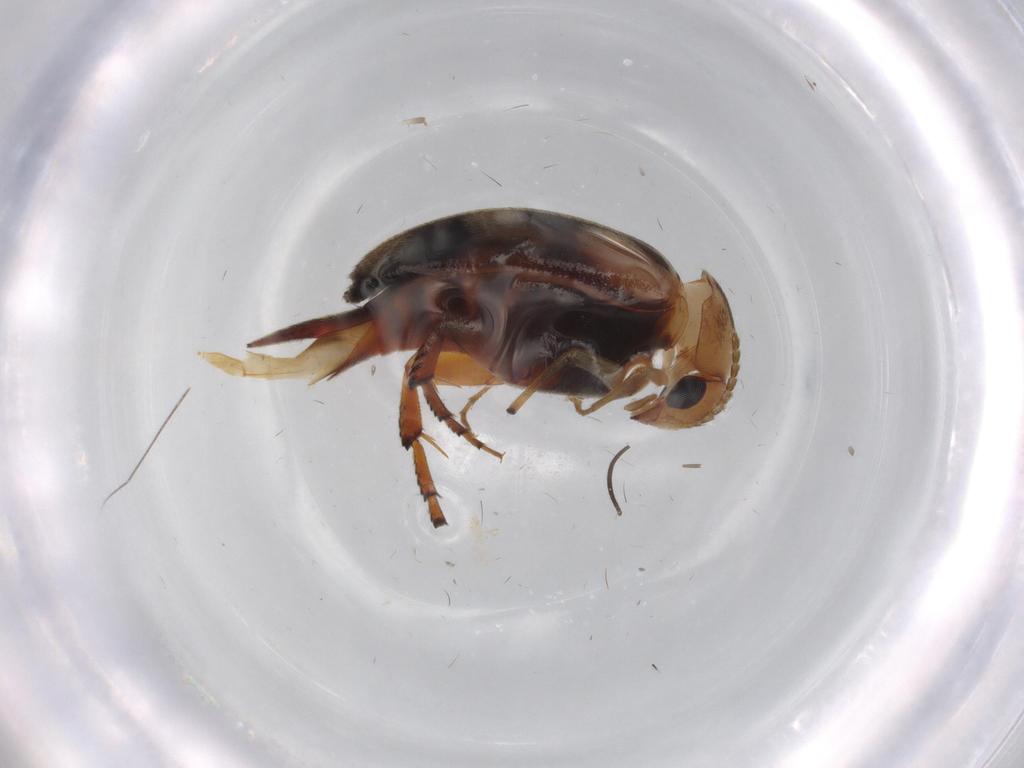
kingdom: Animalia
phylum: Arthropoda
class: Insecta
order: Coleoptera
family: Mordellidae
